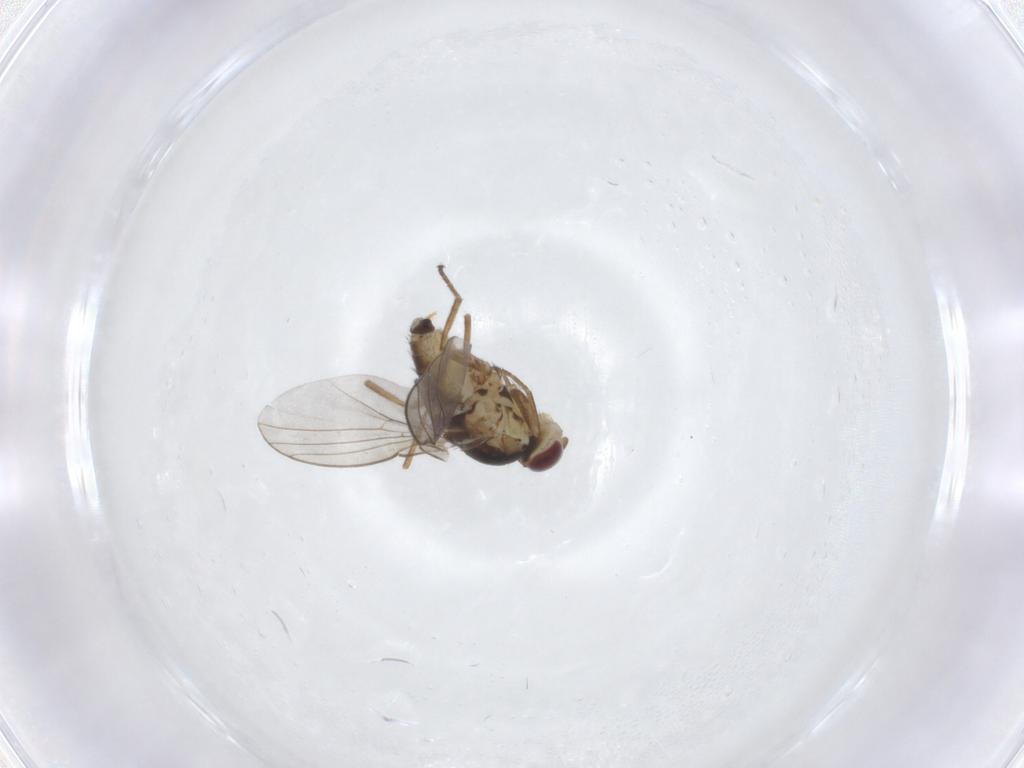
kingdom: Animalia
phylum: Arthropoda
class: Insecta
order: Diptera
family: Agromyzidae
